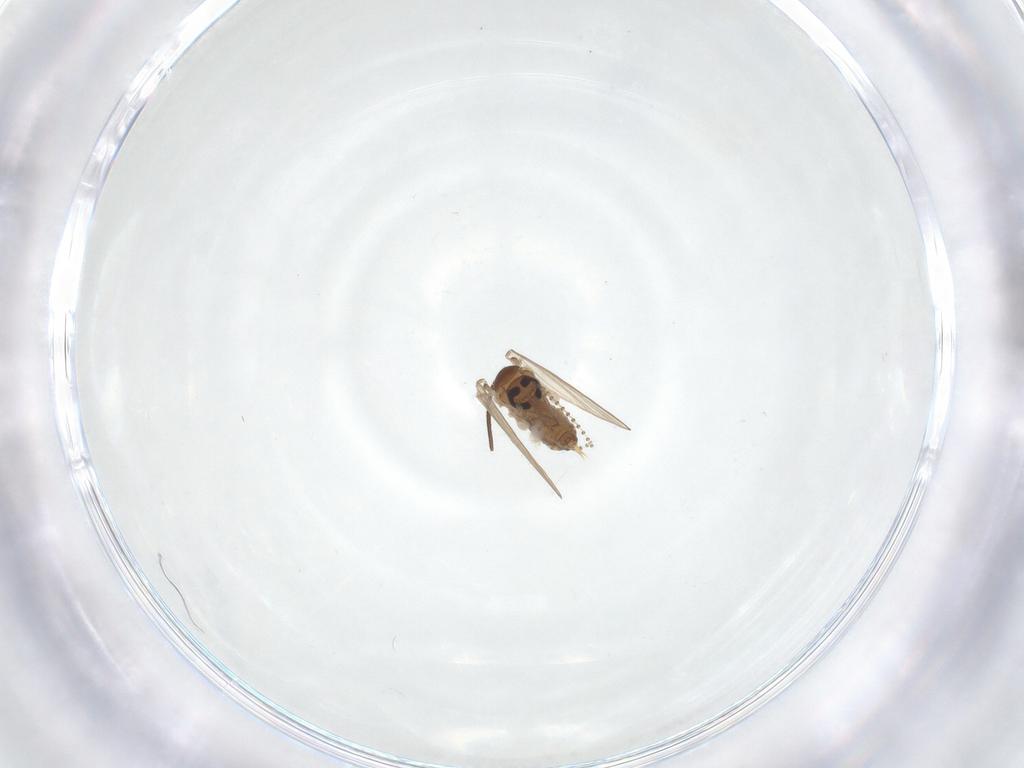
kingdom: Animalia
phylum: Arthropoda
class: Insecta
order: Diptera
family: Psychodidae
